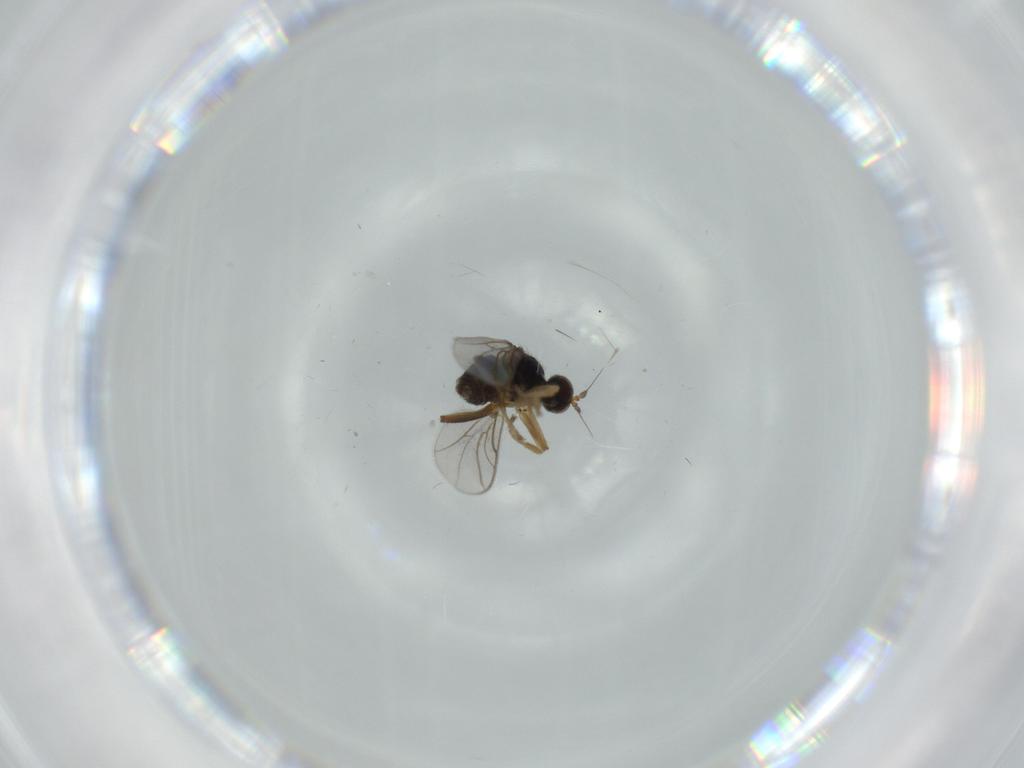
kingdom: Animalia
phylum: Arthropoda
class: Insecta
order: Diptera
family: Hybotidae
